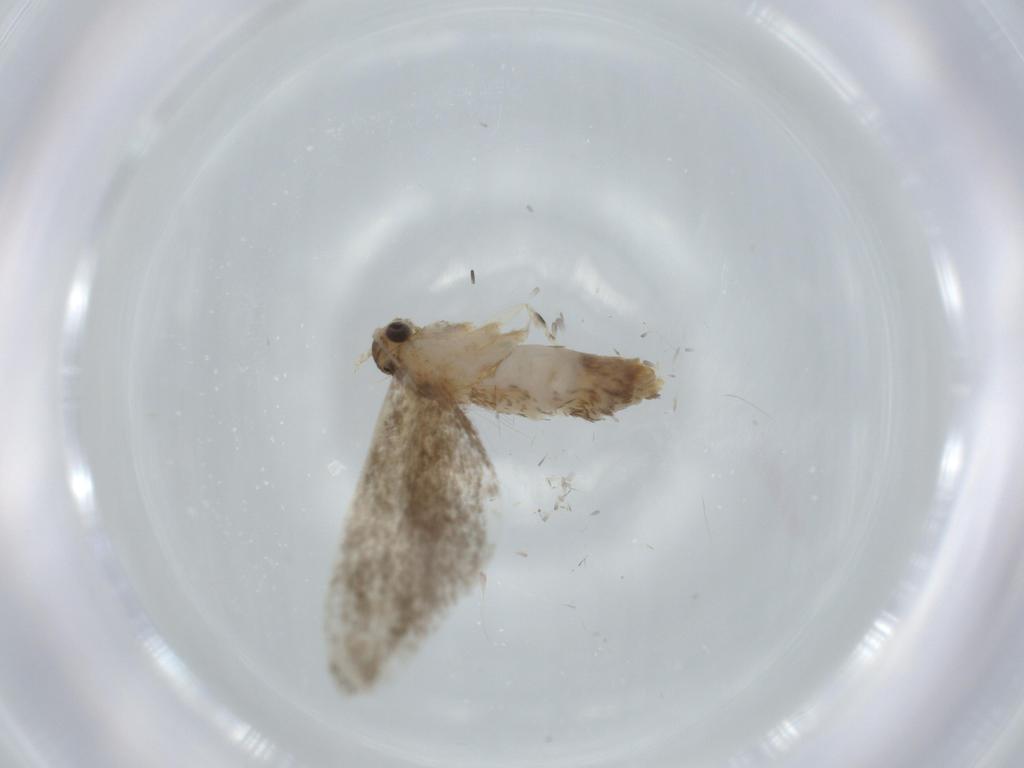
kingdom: Animalia
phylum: Arthropoda
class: Insecta
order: Lepidoptera
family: Tineidae
